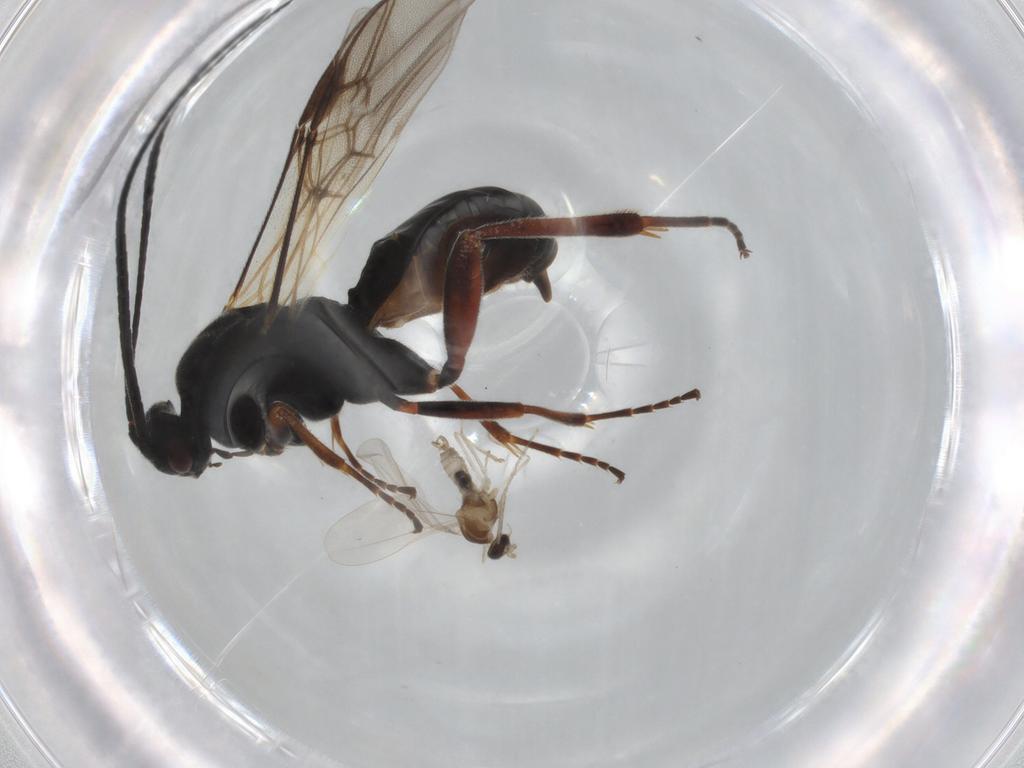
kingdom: Animalia
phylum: Arthropoda
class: Insecta
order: Hymenoptera
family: Braconidae
